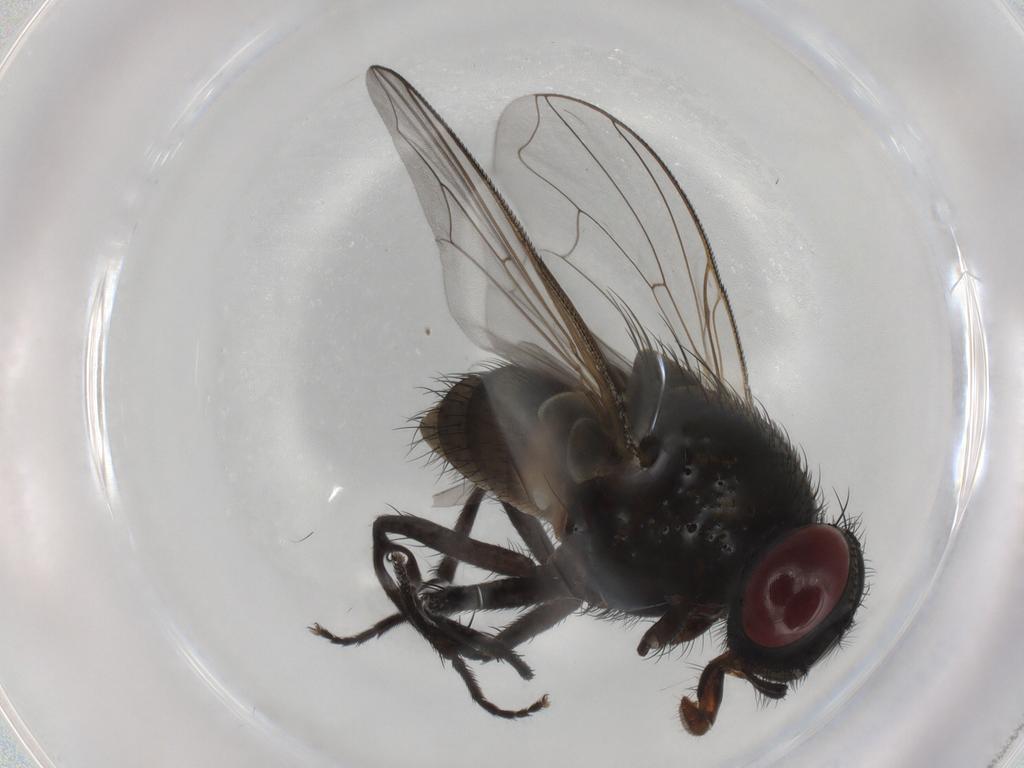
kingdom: Animalia
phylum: Arthropoda
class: Insecta
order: Diptera
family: Muscidae
